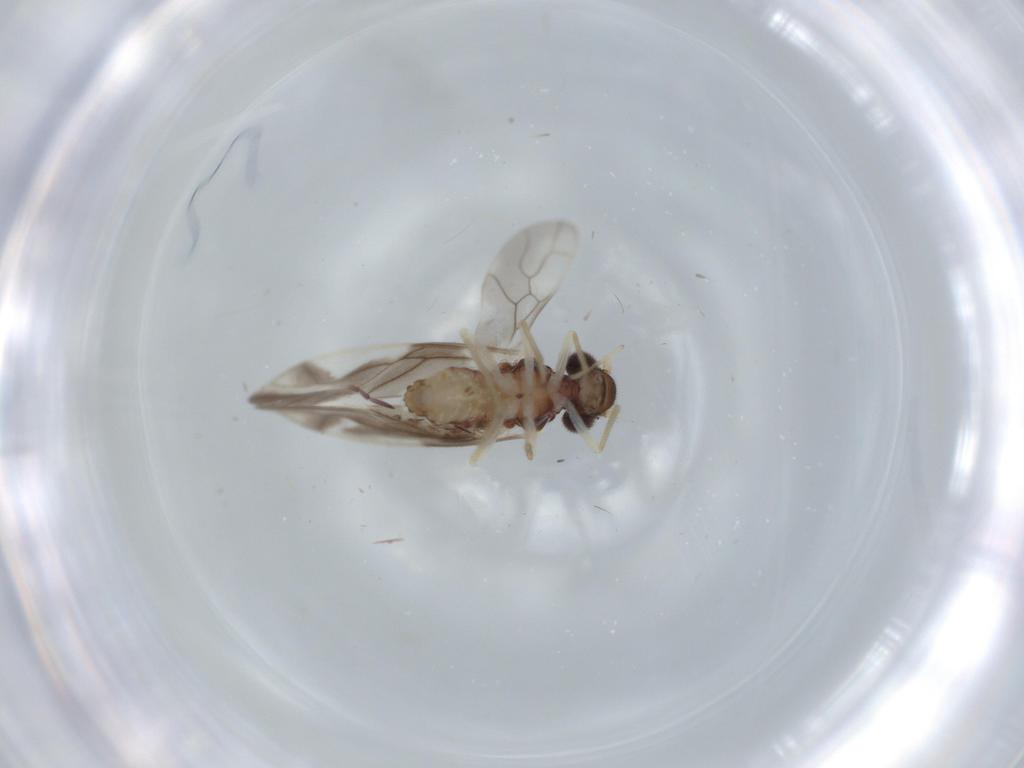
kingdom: Animalia
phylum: Arthropoda
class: Insecta
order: Psocodea
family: Caeciliusidae
